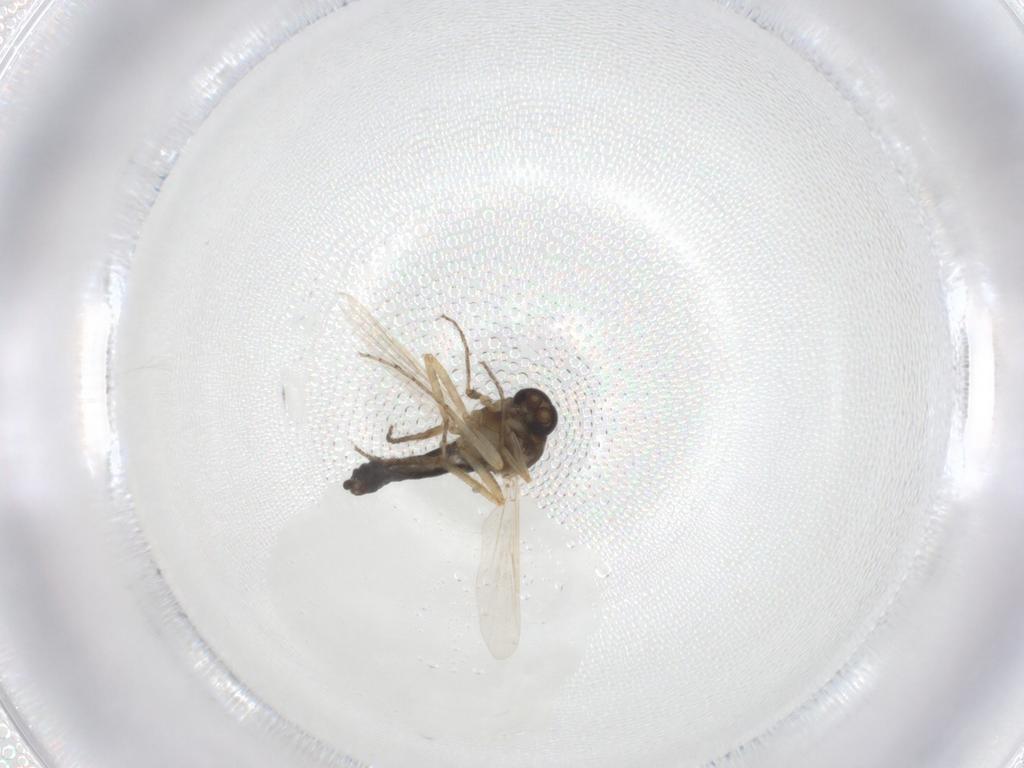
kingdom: Animalia
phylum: Arthropoda
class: Insecta
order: Diptera
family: Ceratopogonidae
